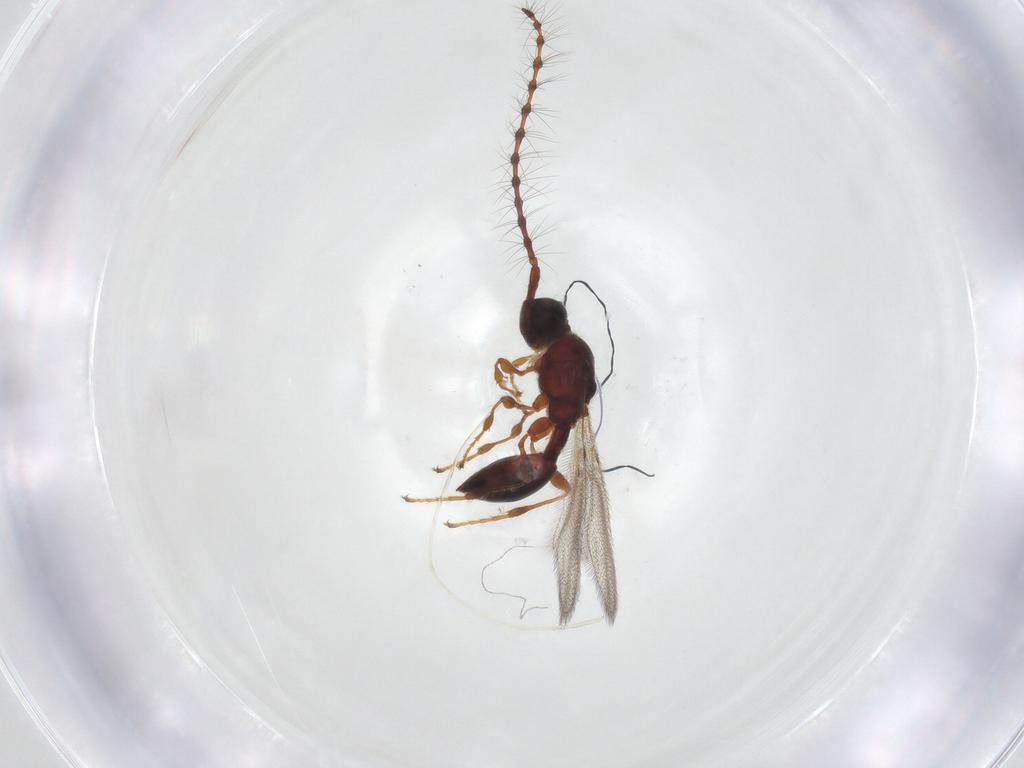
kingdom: Animalia
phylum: Arthropoda
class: Insecta
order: Hymenoptera
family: Diapriidae
